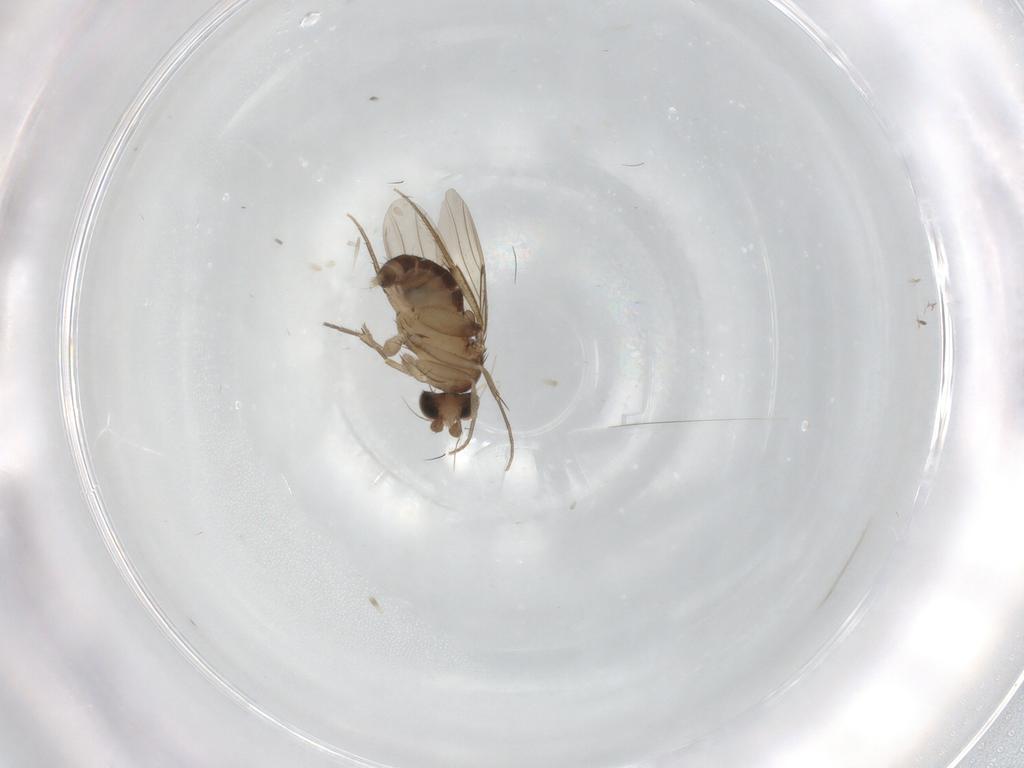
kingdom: Animalia
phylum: Arthropoda
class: Insecta
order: Diptera
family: Phoridae
